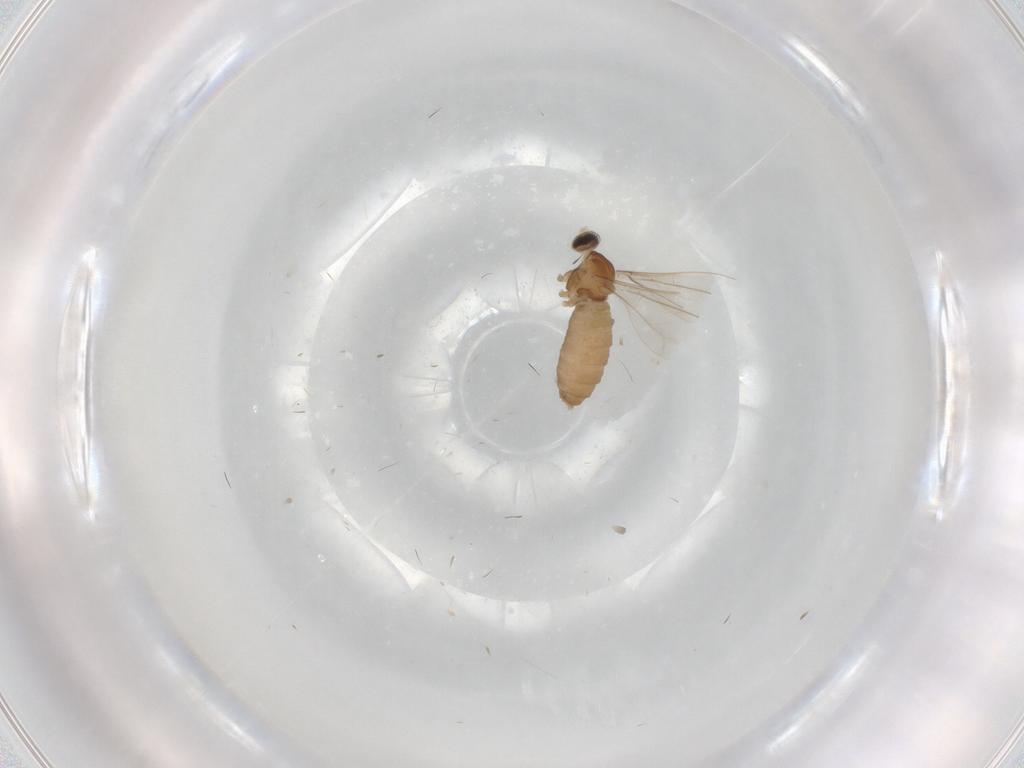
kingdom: Animalia
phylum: Arthropoda
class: Insecta
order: Diptera
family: Cecidomyiidae
